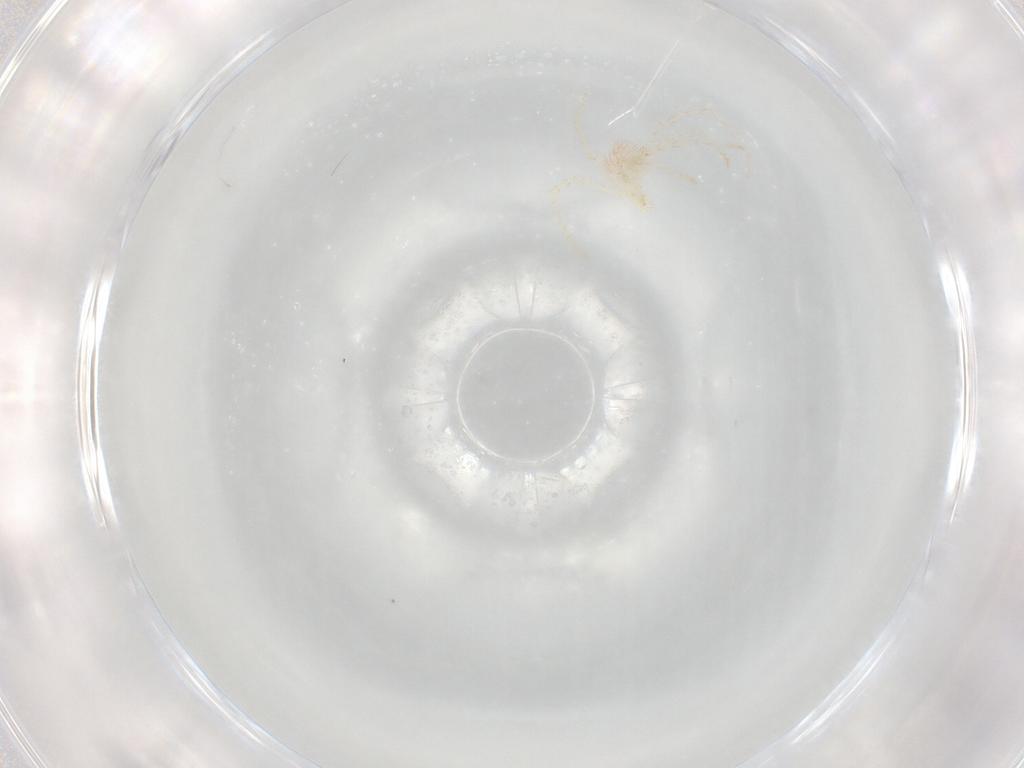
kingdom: Animalia
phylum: Arthropoda
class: Arachnida
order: Trombidiformes
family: Erythraeidae
